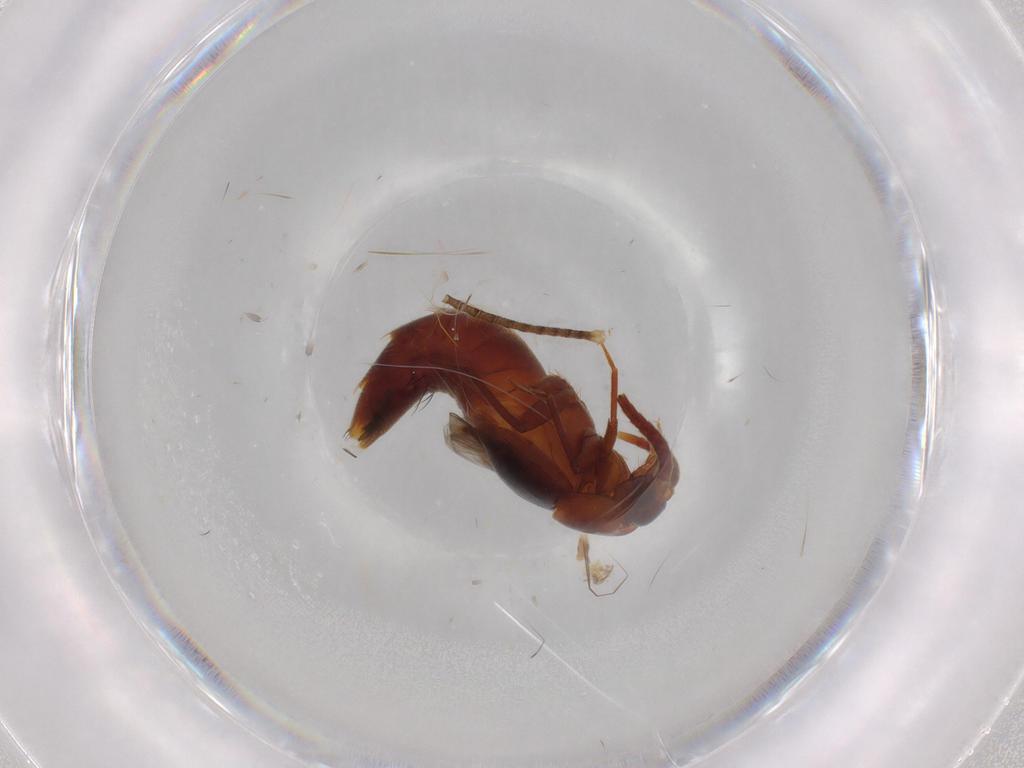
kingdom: Animalia
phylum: Arthropoda
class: Insecta
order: Coleoptera
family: Staphylinidae
